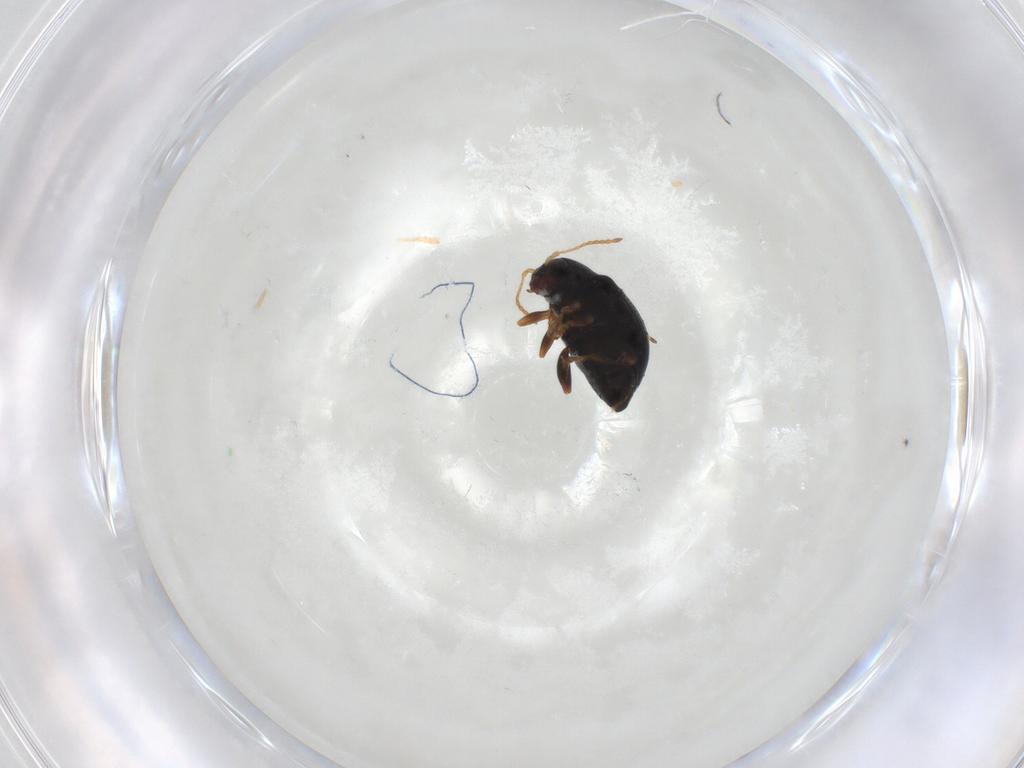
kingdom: Animalia
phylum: Arthropoda
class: Insecta
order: Coleoptera
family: Chrysomelidae
